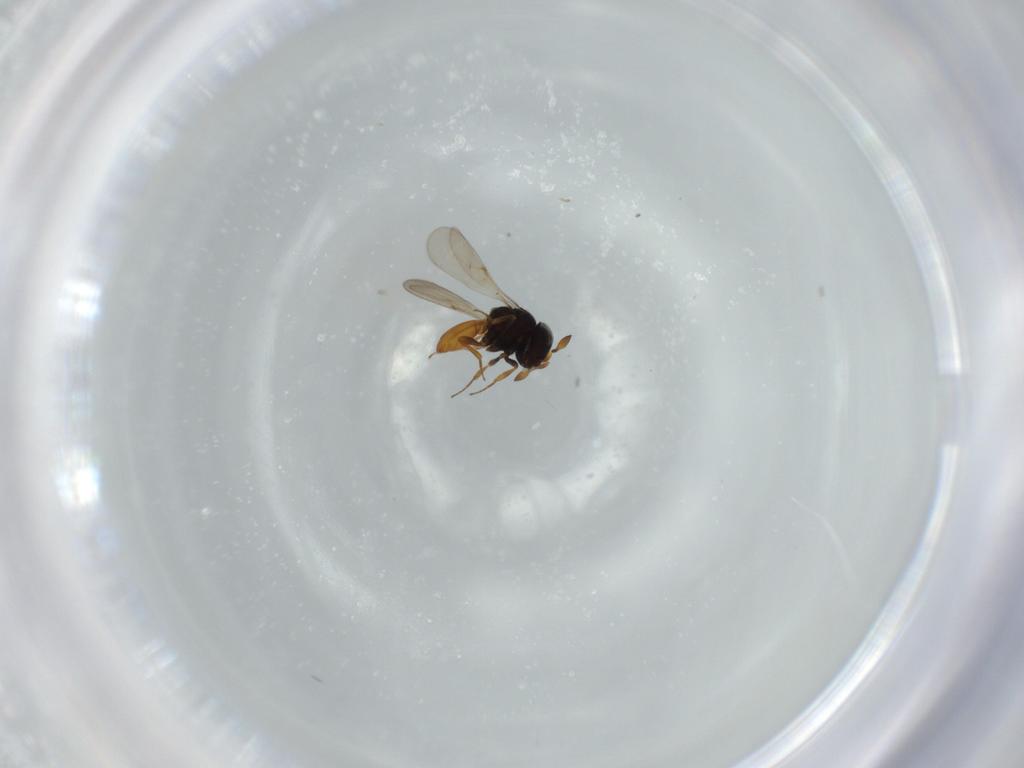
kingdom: Animalia
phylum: Arthropoda
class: Insecta
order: Hymenoptera
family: Scelionidae
